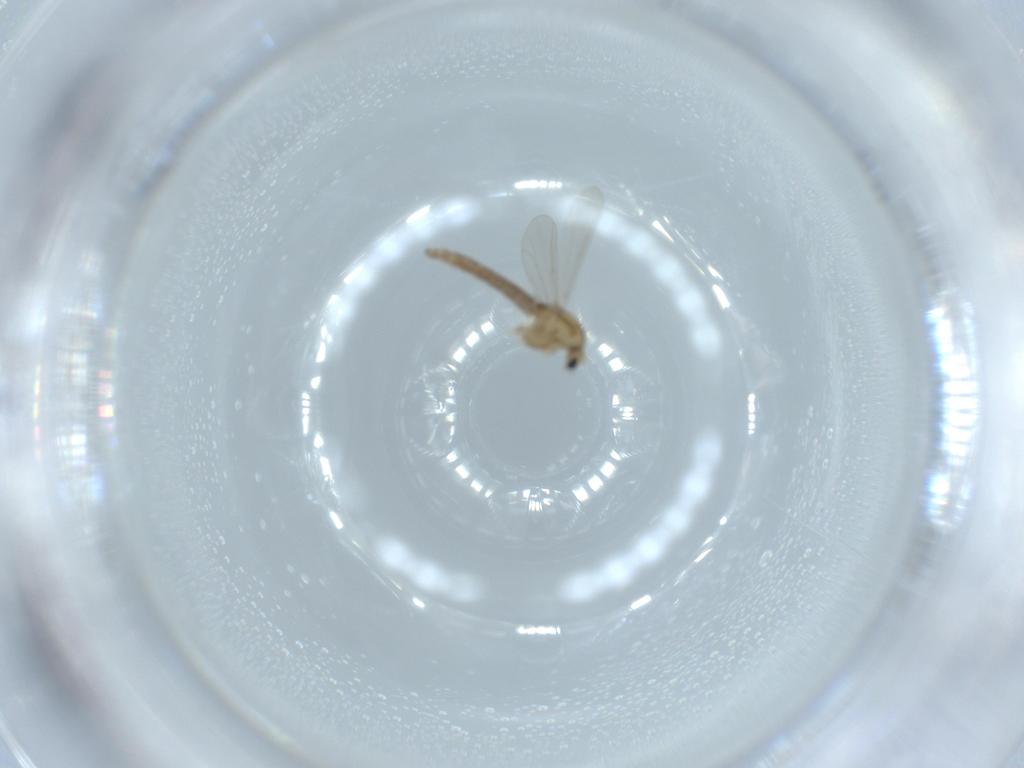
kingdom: Animalia
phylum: Arthropoda
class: Insecta
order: Diptera
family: Chironomidae
